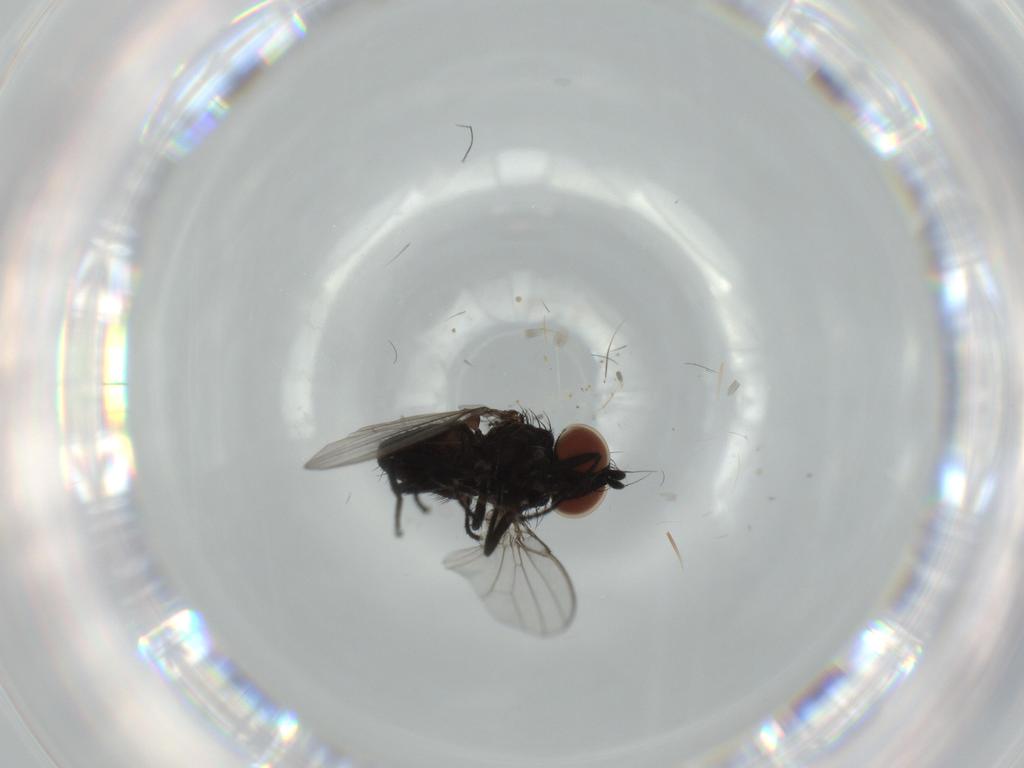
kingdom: Animalia
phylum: Arthropoda
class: Insecta
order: Diptera
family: Milichiidae
